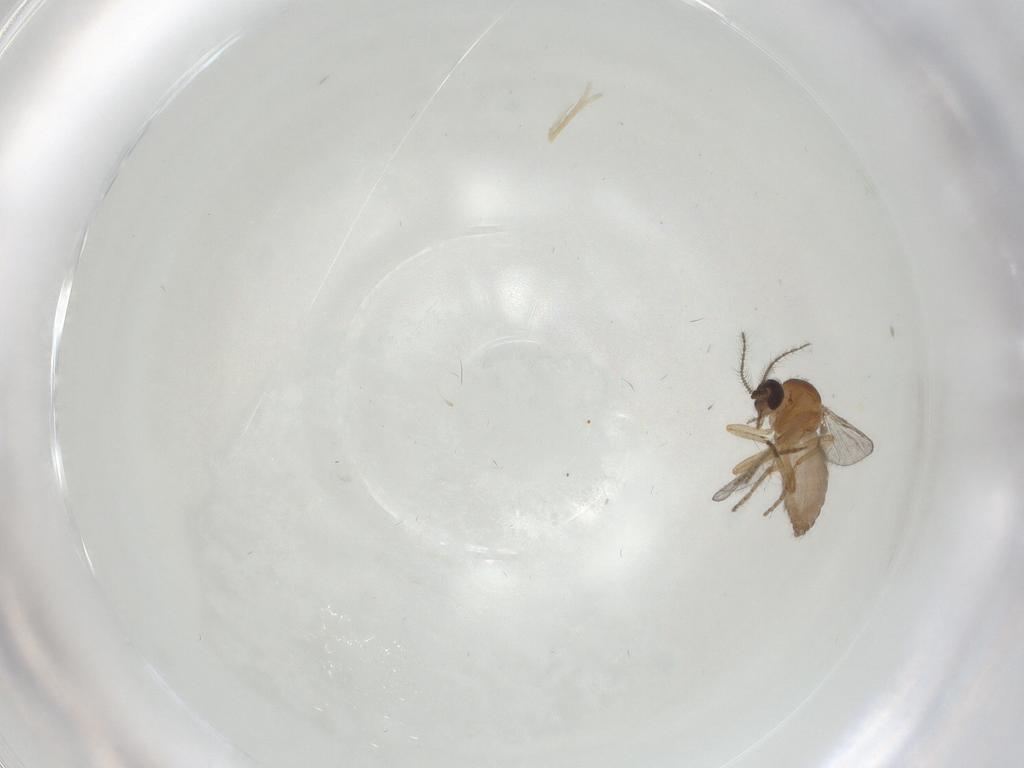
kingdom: Animalia
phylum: Arthropoda
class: Insecta
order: Diptera
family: Ceratopogonidae
